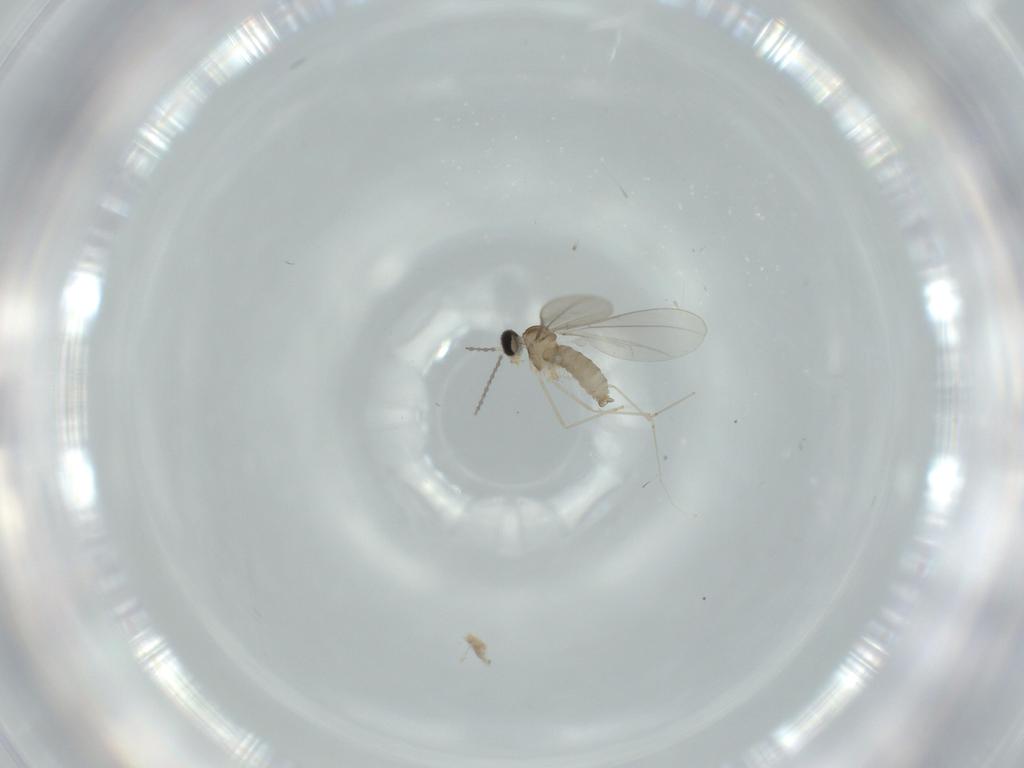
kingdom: Animalia
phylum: Arthropoda
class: Insecta
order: Diptera
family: Cecidomyiidae
